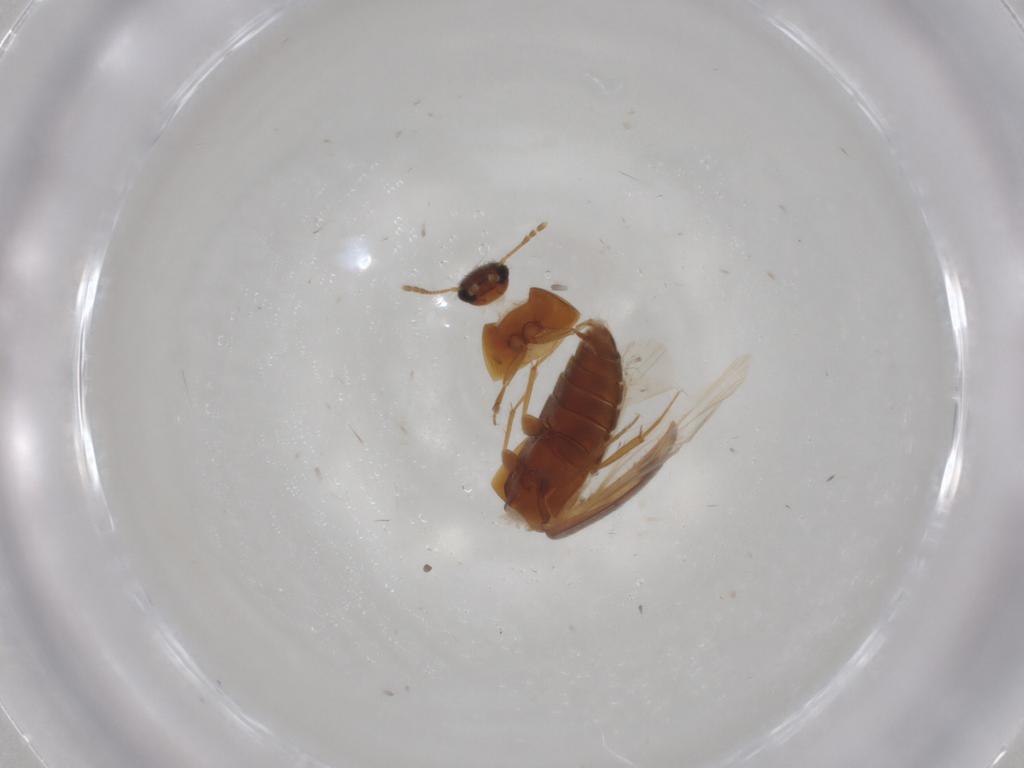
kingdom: Animalia
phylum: Arthropoda
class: Insecta
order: Coleoptera
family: Mycetophagidae
